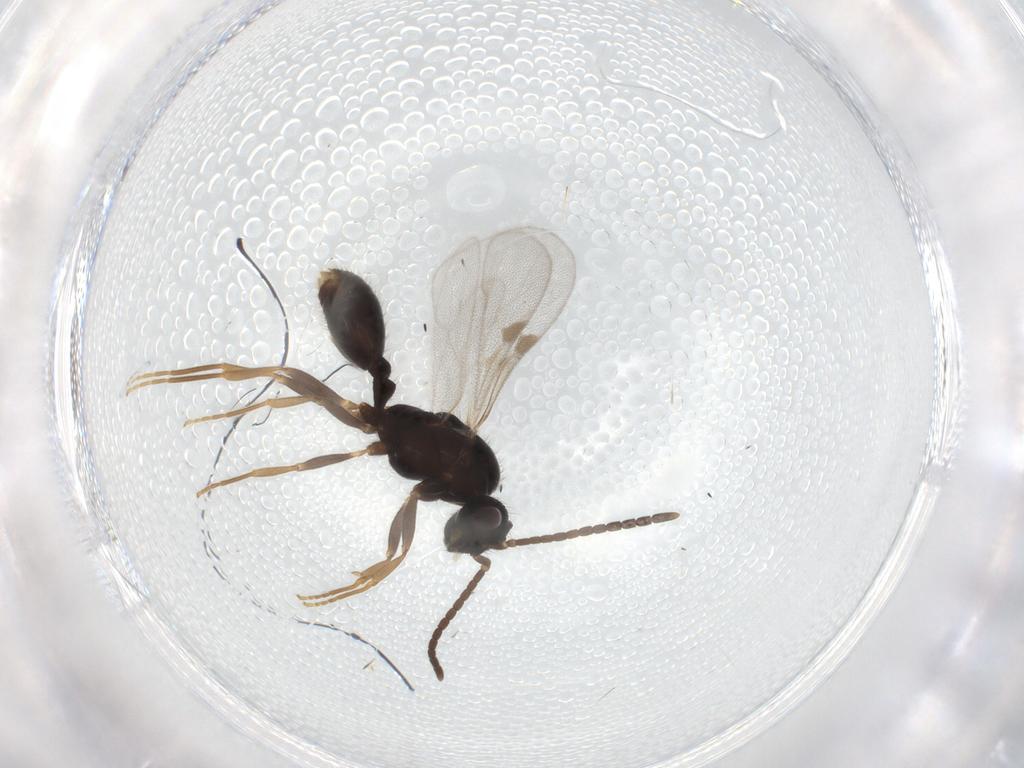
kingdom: Animalia
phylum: Arthropoda
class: Insecta
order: Hymenoptera
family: Formicidae
